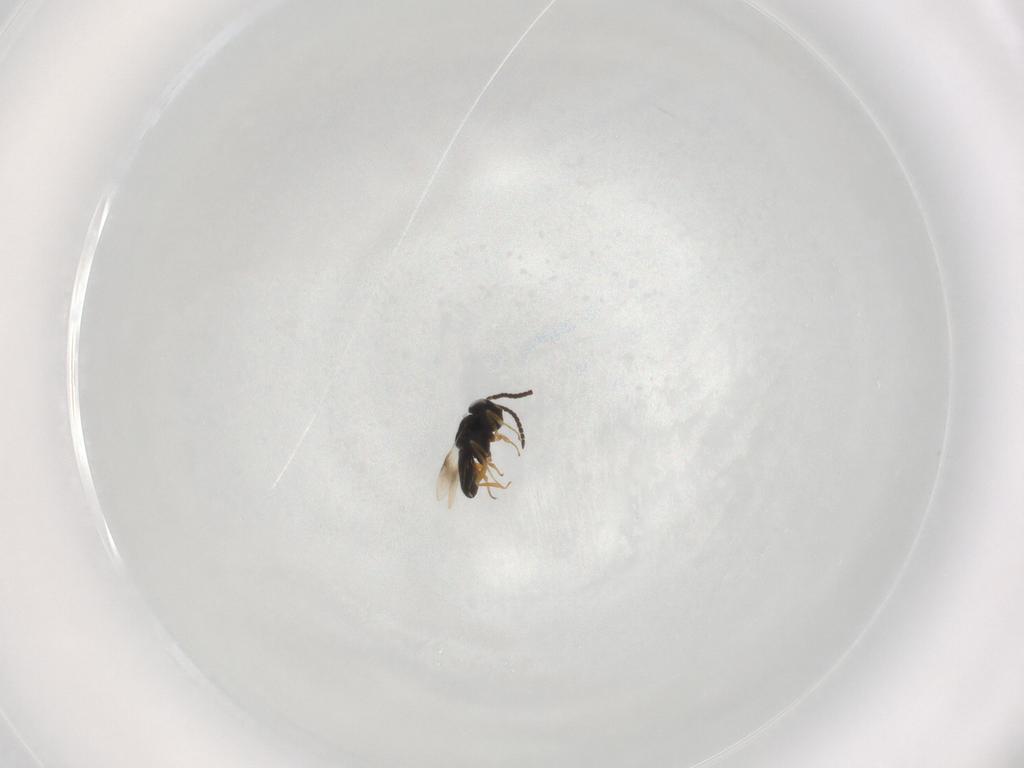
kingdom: Animalia
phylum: Arthropoda
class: Insecta
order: Hymenoptera
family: Scelionidae
